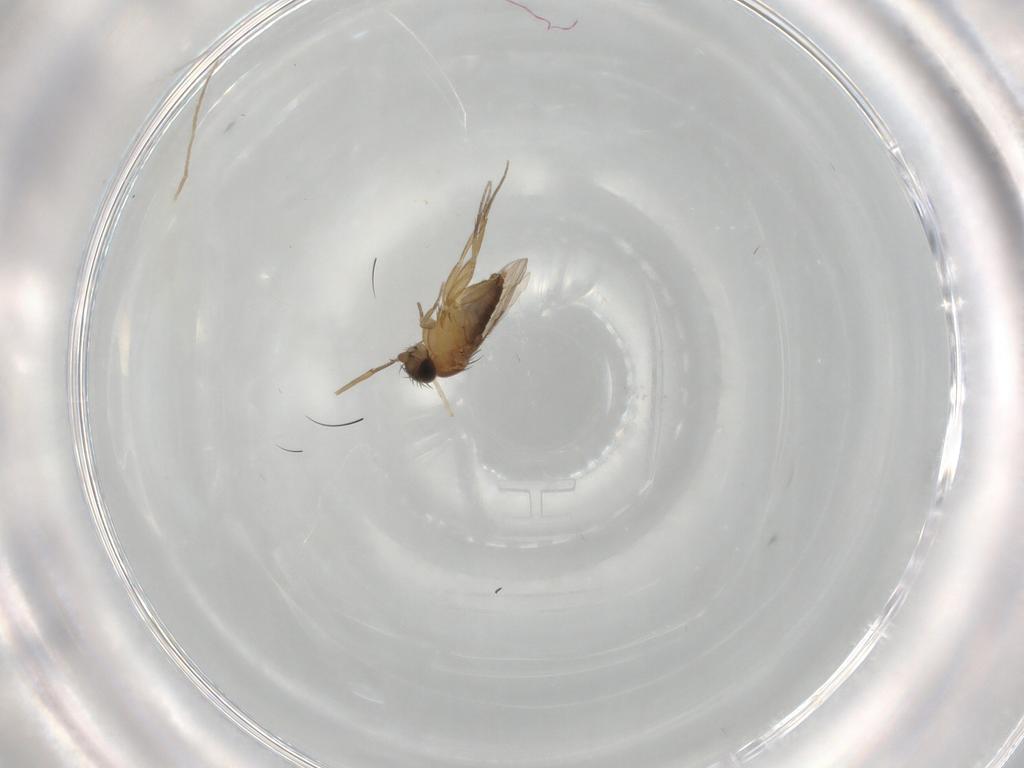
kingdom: Animalia
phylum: Arthropoda
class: Insecta
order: Diptera
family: Phoridae
